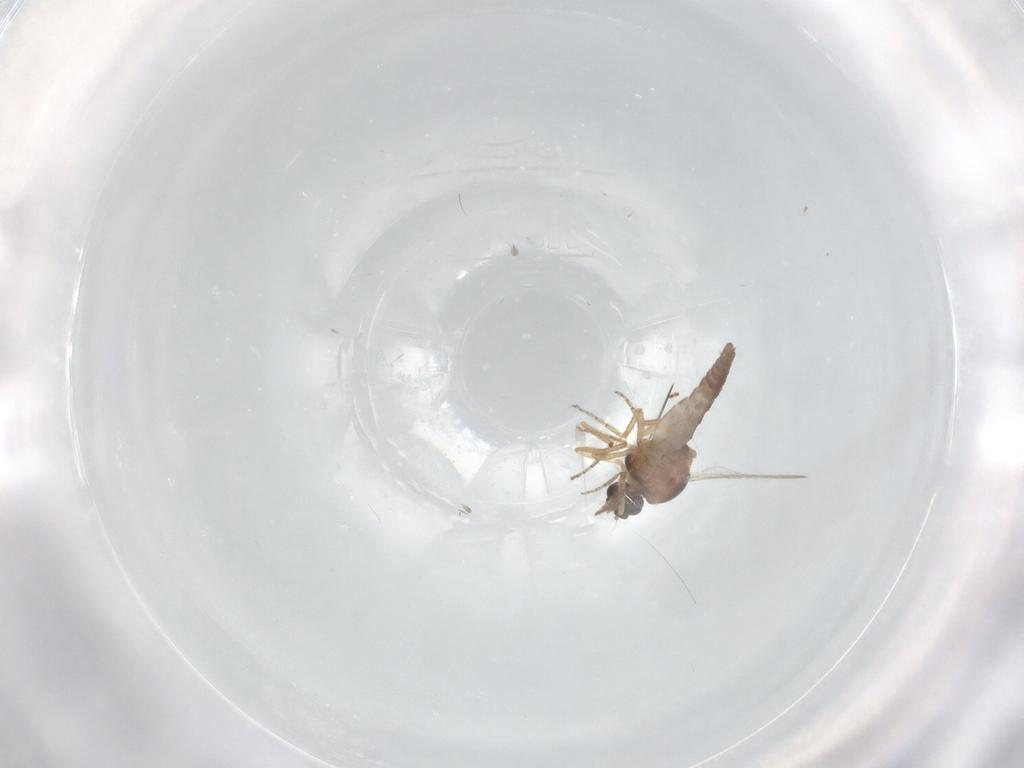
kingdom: Animalia
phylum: Arthropoda
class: Insecta
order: Diptera
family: Ceratopogonidae
